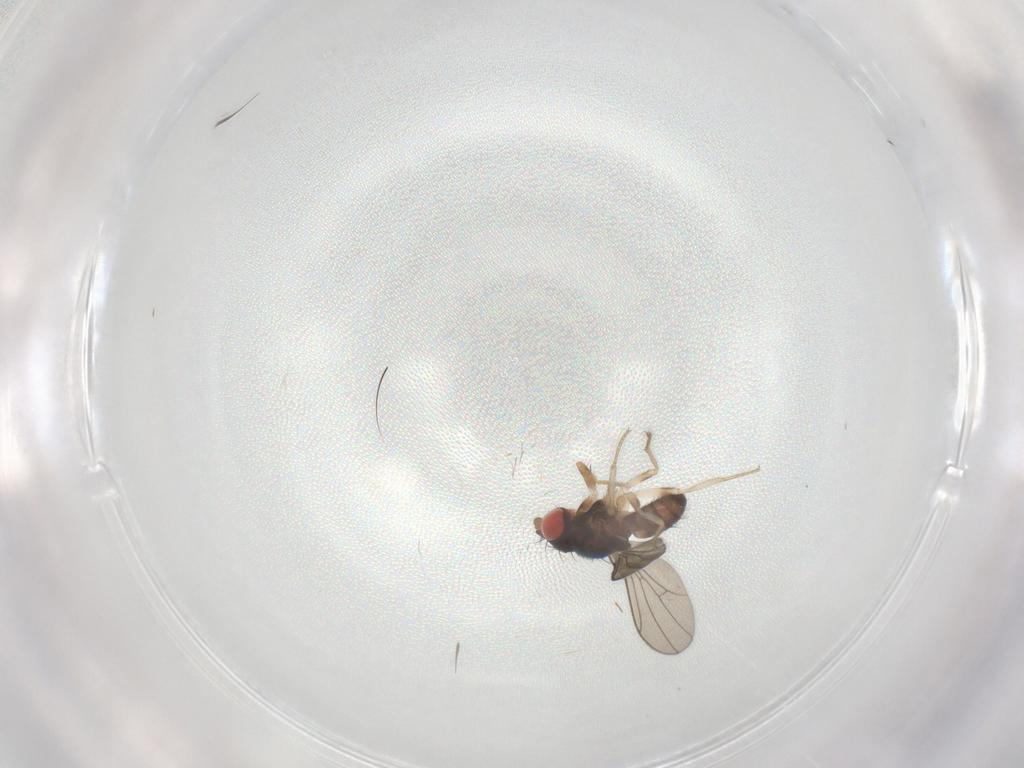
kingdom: Animalia
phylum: Arthropoda
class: Insecta
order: Diptera
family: Drosophilidae
